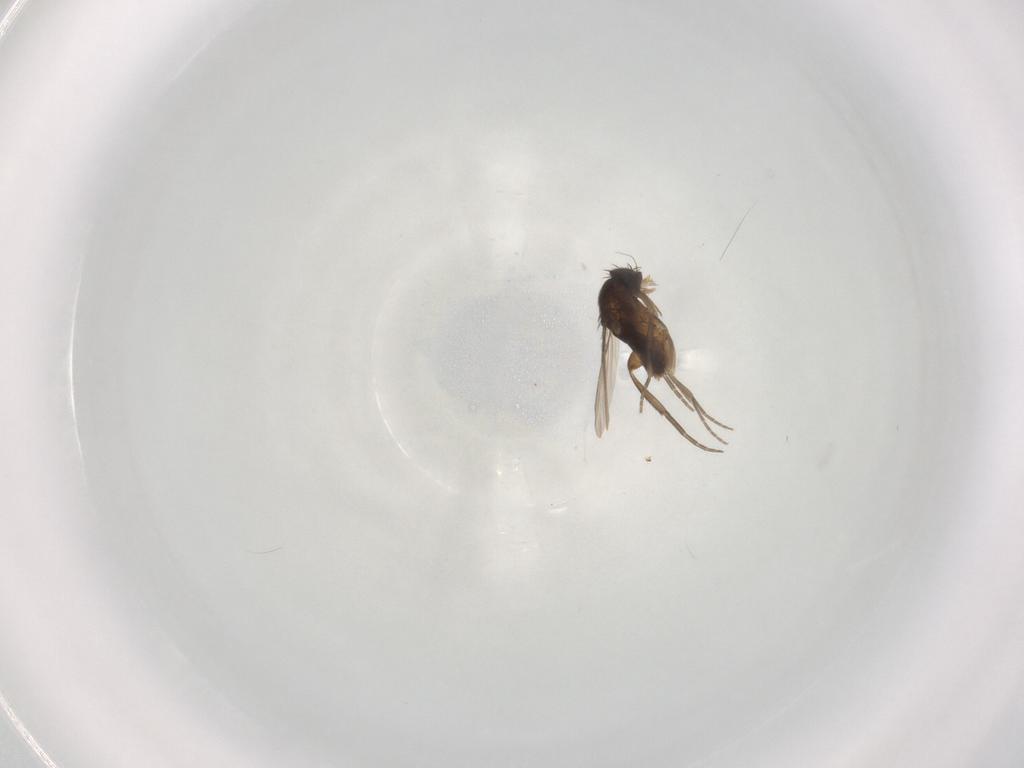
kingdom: Animalia
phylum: Arthropoda
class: Insecta
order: Diptera
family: Phoridae
